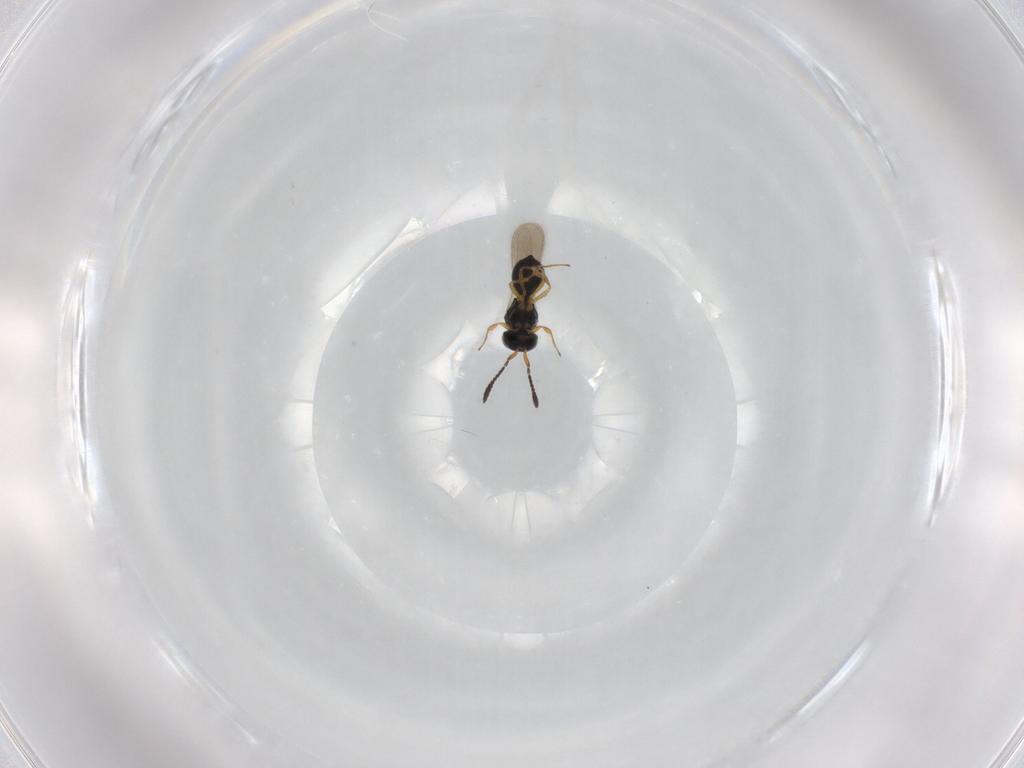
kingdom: Animalia
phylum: Arthropoda
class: Insecta
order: Hymenoptera
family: Scelionidae
